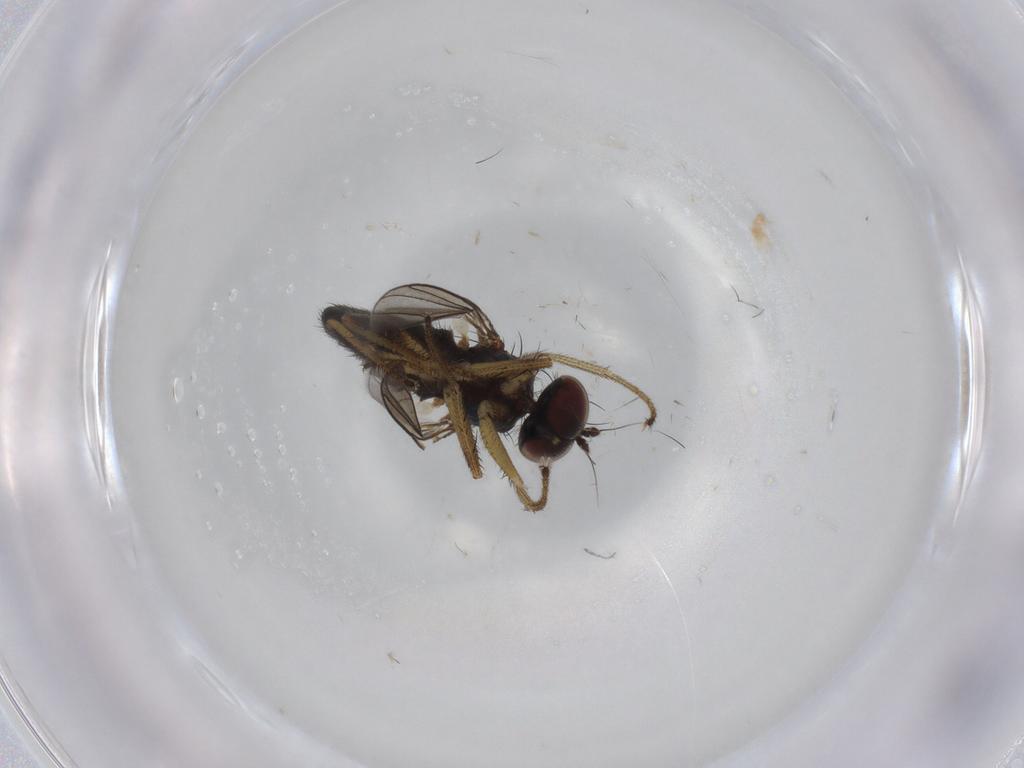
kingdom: Animalia
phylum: Arthropoda
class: Insecta
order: Diptera
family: Dolichopodidae
